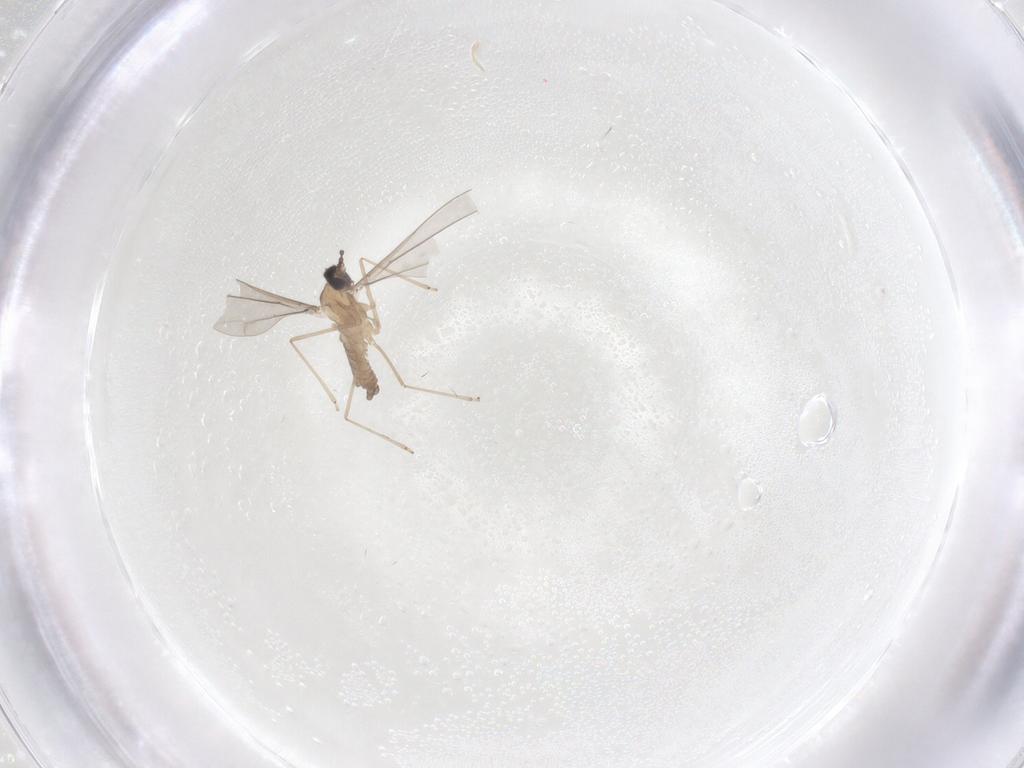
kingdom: Animalia
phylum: Arthropoda
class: Insecta
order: Diptera
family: Cecidomyiidae
